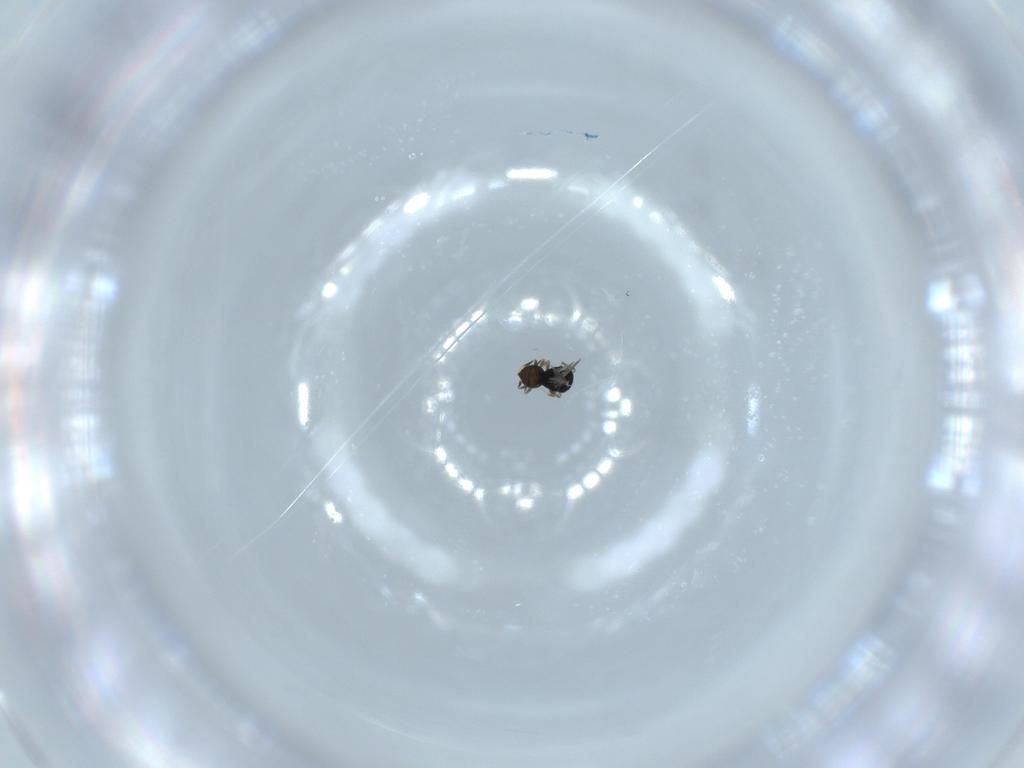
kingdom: Animalia
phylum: Arthropoda
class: Insecta
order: Hymenoptera
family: Scelionidae
